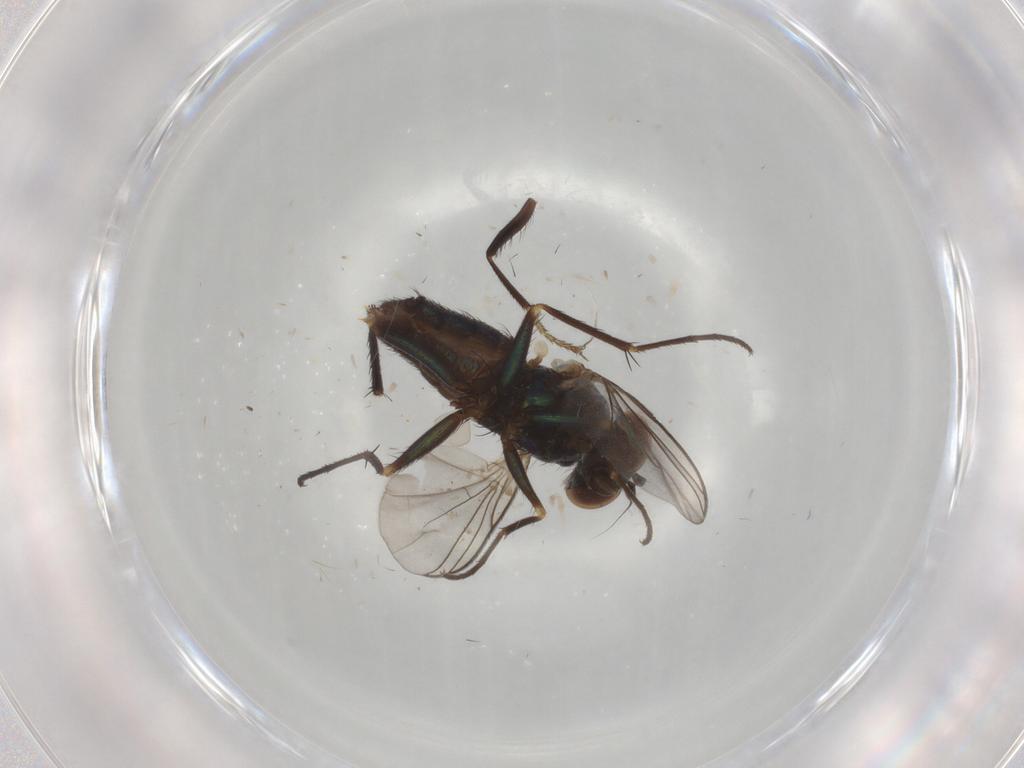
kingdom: Animalia
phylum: Arthropoda
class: Insecta
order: Diptera
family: Dolichopodidae
